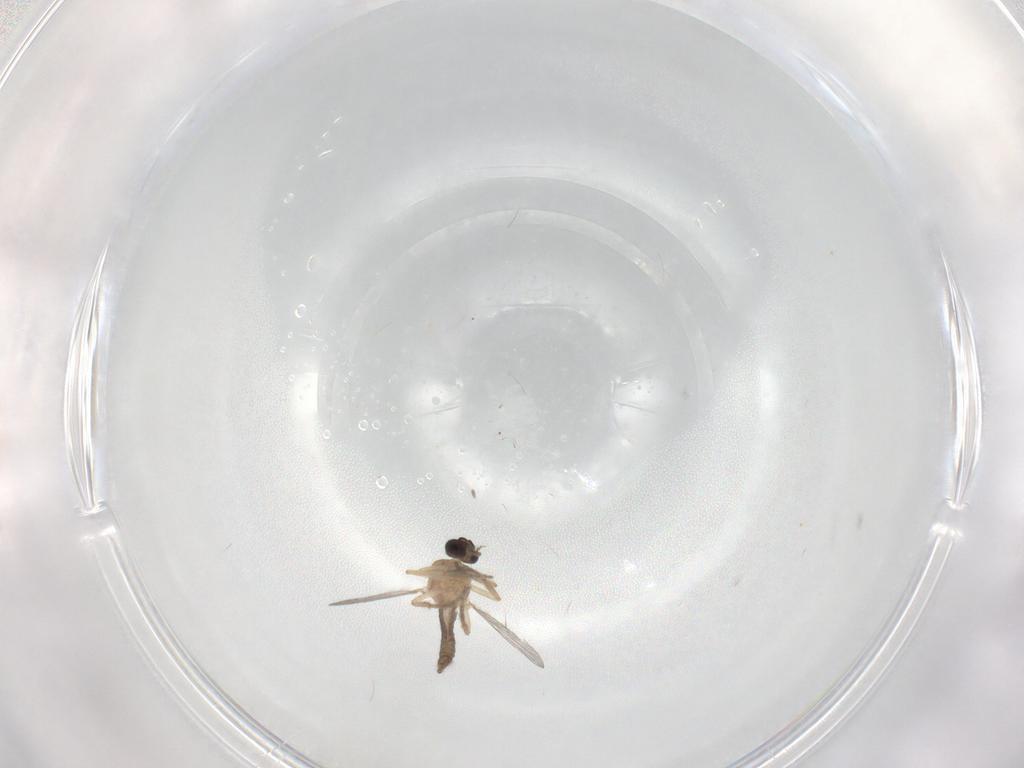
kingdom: Animalia
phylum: Arthropoda
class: Insecta
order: Diptera
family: Ceratopogonidae
